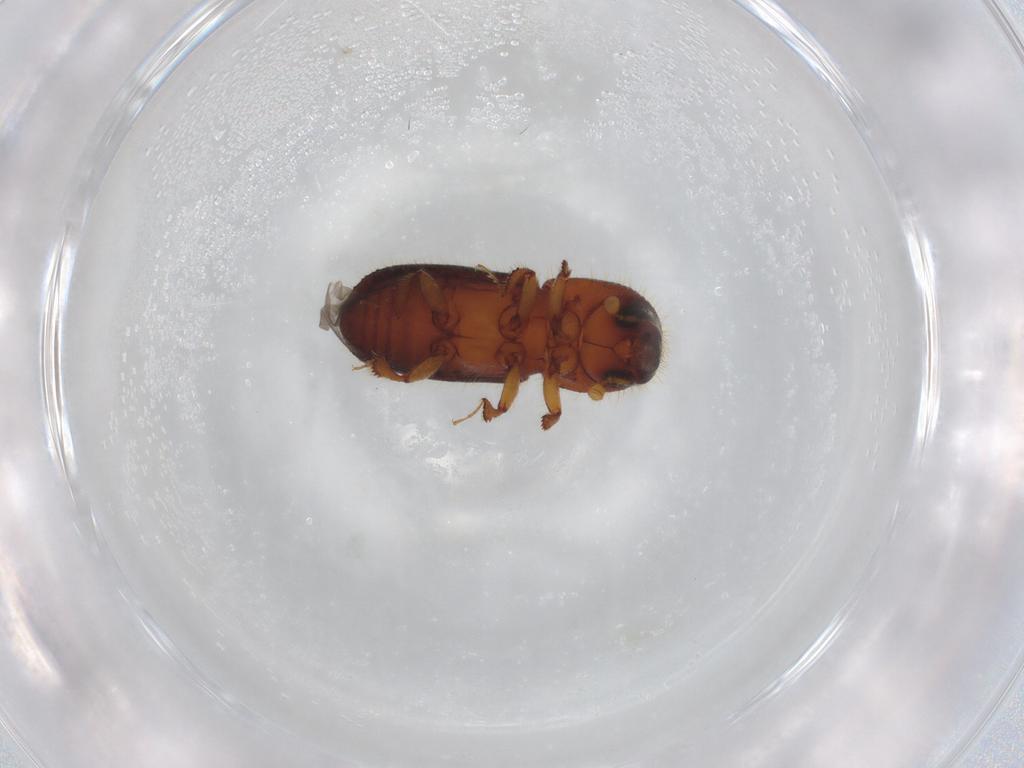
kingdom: Animalia
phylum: Arthropoda
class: Insecta
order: Coleoptera
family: Curculionidae
